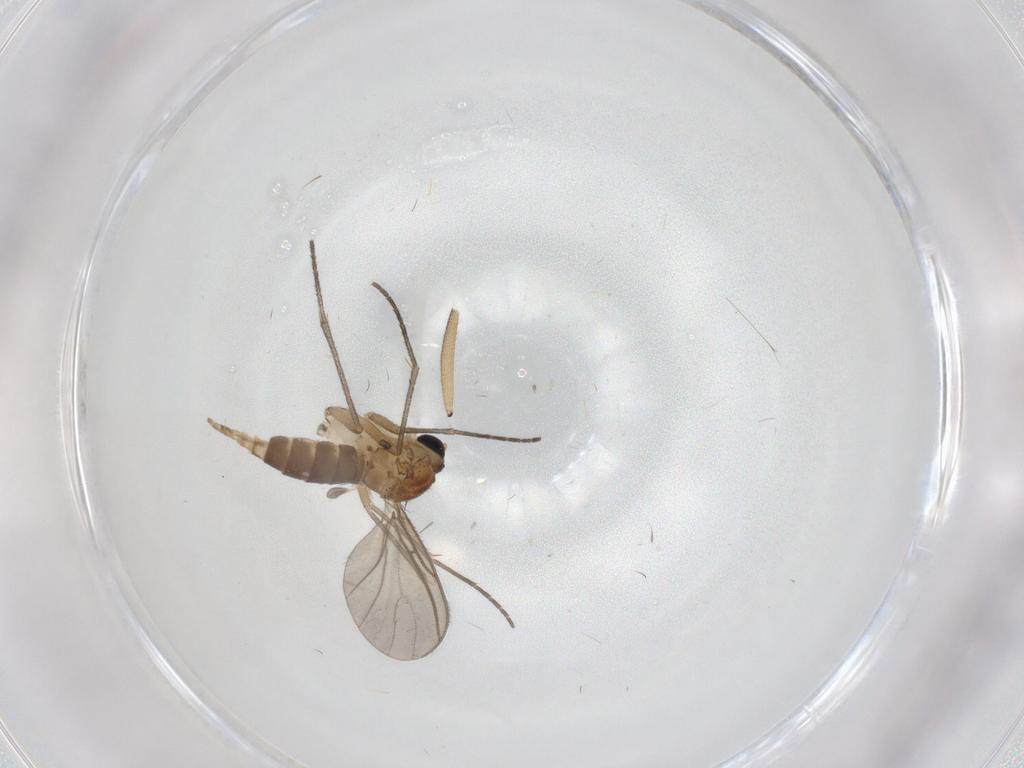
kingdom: Animalia
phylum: Arthropoda
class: Insecta
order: Diptera
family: Sciaridae
